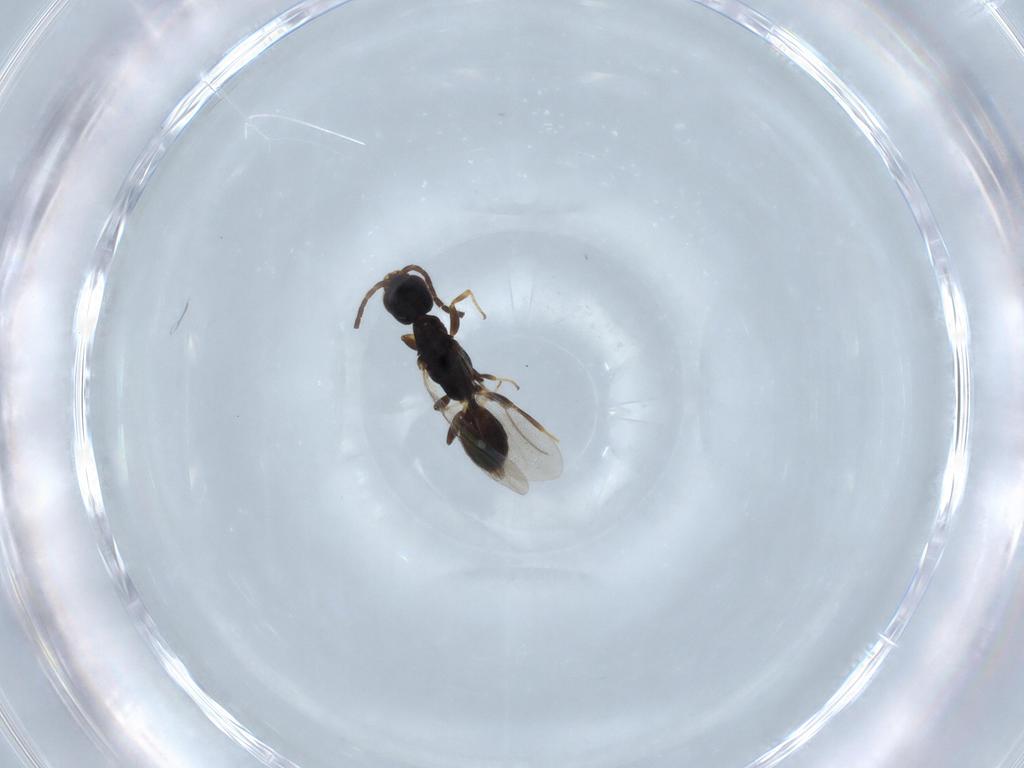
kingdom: Animalia
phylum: Arthropoda
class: Insecta
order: Hymenoptera
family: Bethylidae
